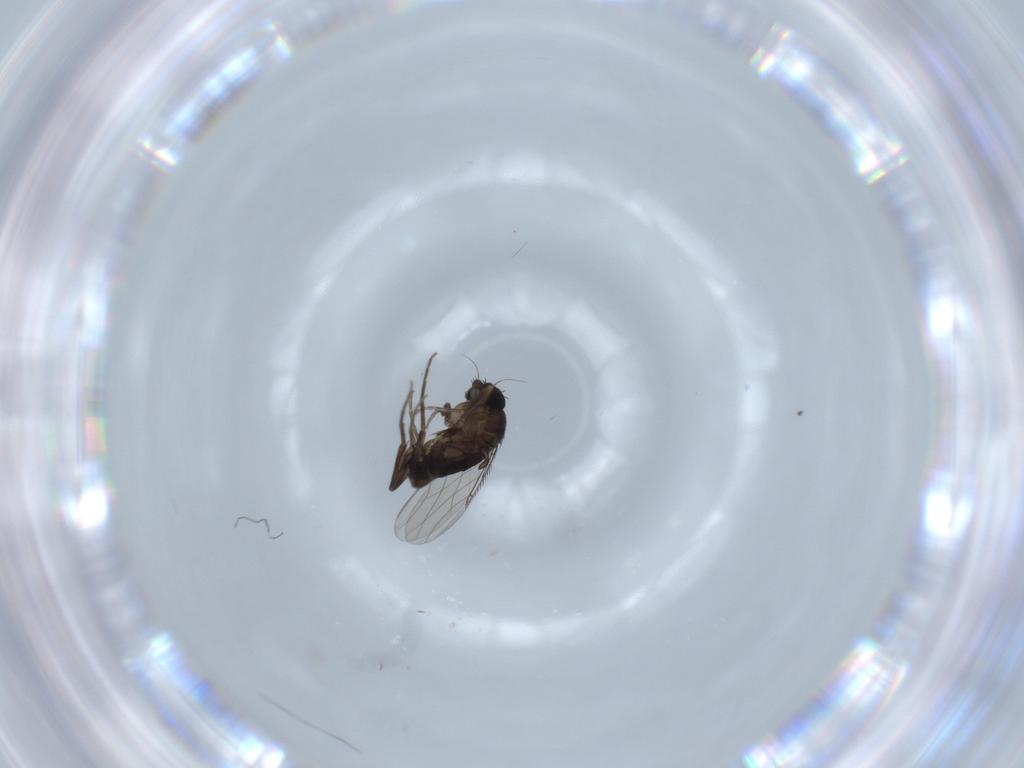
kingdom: Animalia
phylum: Arthropoda
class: Insecta
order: Diptera
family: Phoridae
